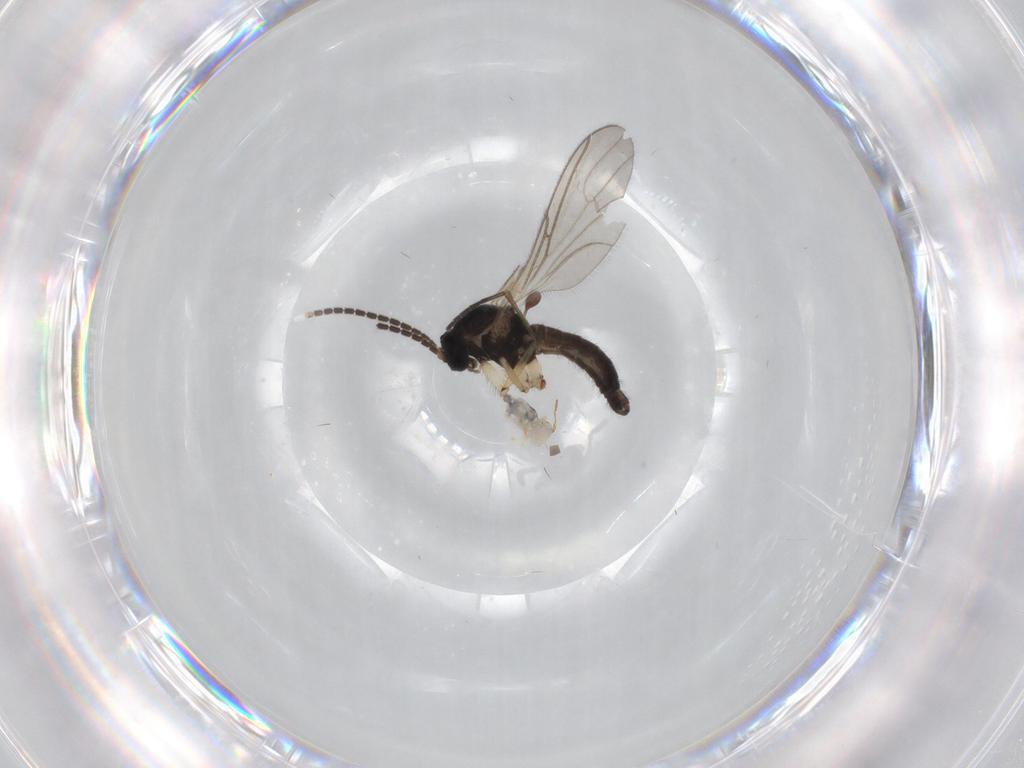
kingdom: Animalia
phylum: Arthropoda
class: Insecta
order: Diptera
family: Sciaridae
